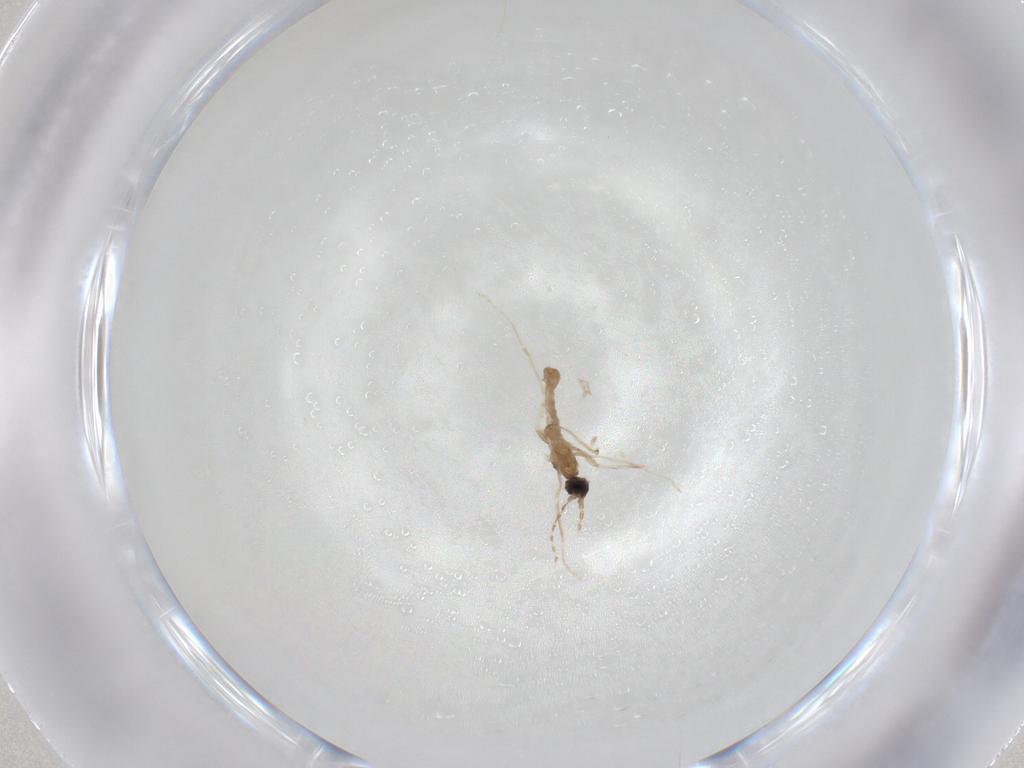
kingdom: Animalia
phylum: Arthropoda
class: Insecta
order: Diptera
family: Cecidomyiidae
